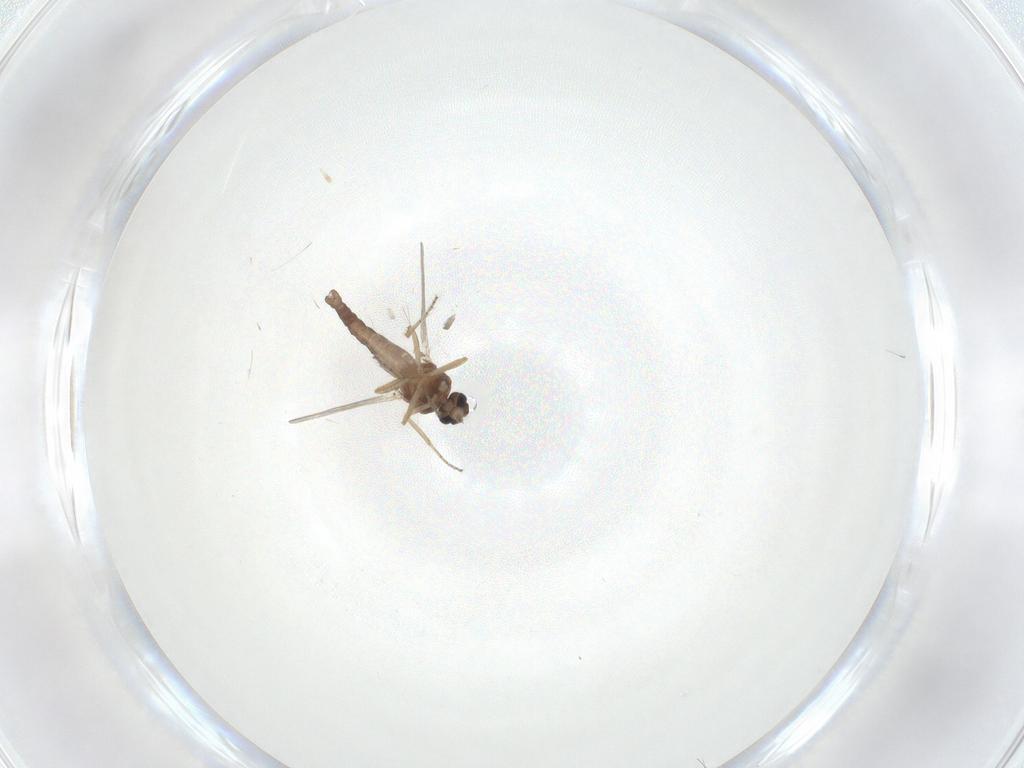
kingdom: Animalia
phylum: Arthropoda
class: Insecta
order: Diptera
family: Ceratopogonidae
